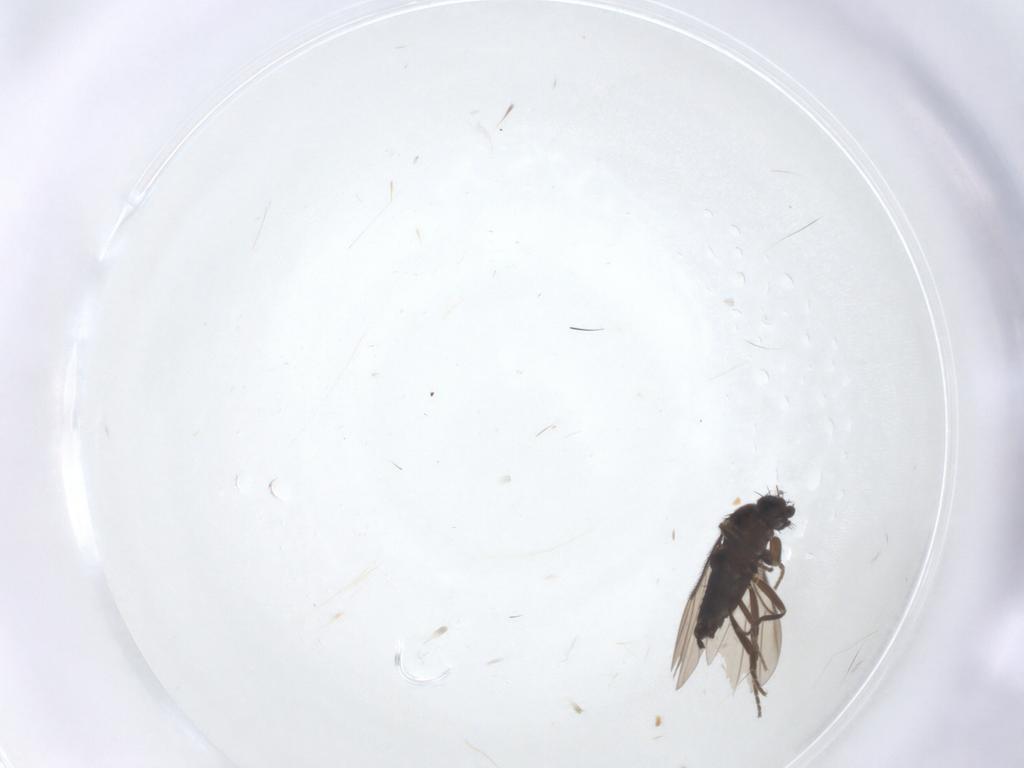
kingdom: Animalia
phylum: Arthropoda
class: Insecta
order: Diptera
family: Phoridae
